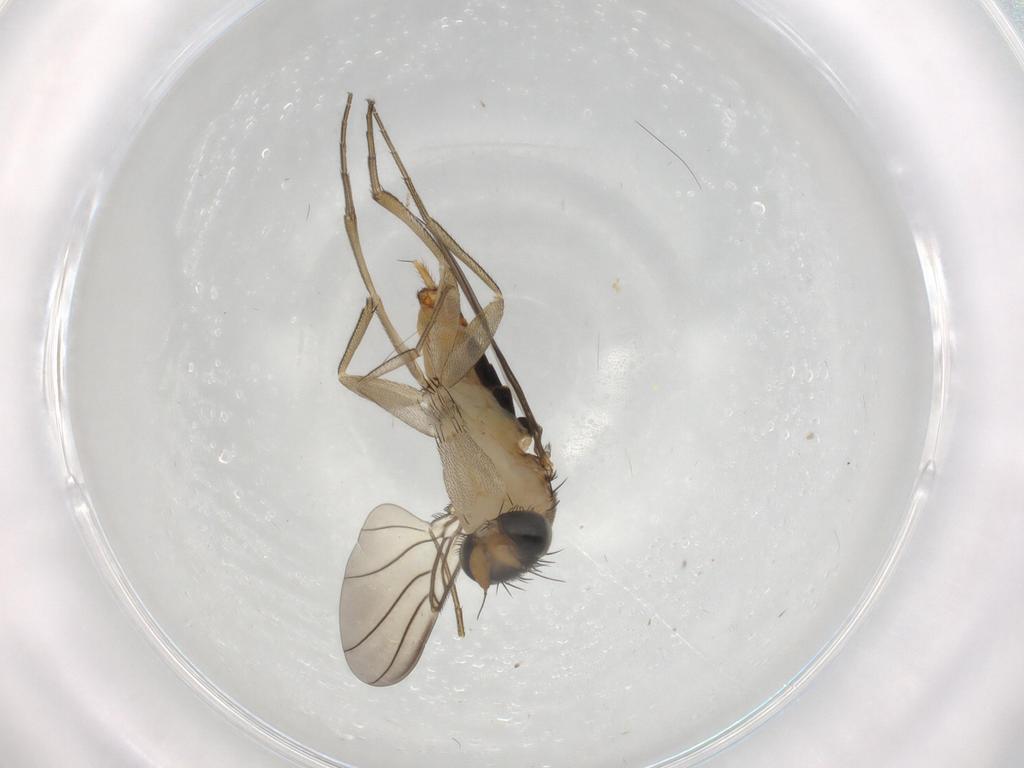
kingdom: Animalia
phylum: Arthropoda
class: Insecta
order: Diptera
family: Phoridae
